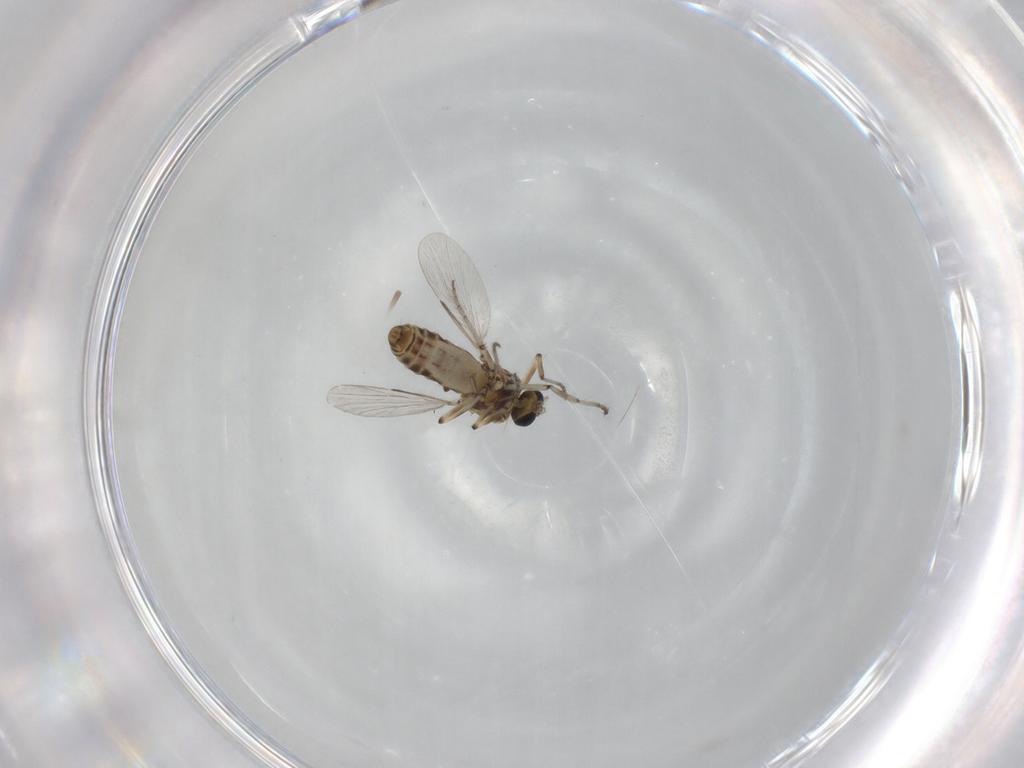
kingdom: Animalia
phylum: Arthropoda
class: Insecta
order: Diptera
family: Ceratopogonidae
